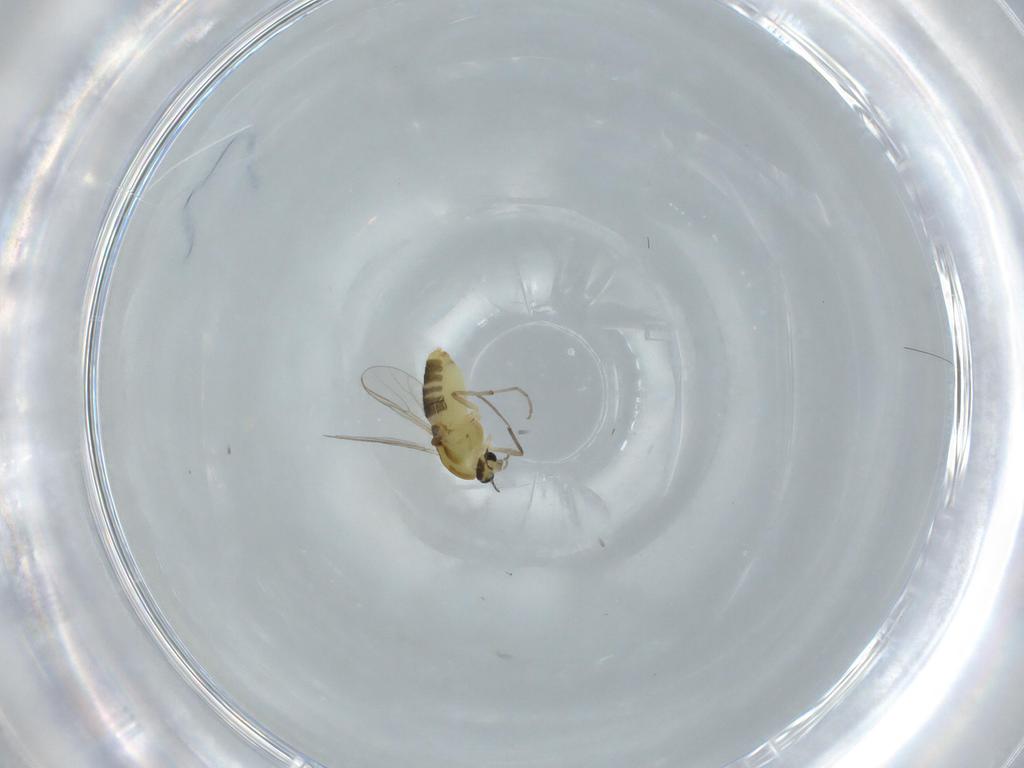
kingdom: Animalia
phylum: Arthropoda
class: Insecta
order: Diptera
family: Chironomidae
